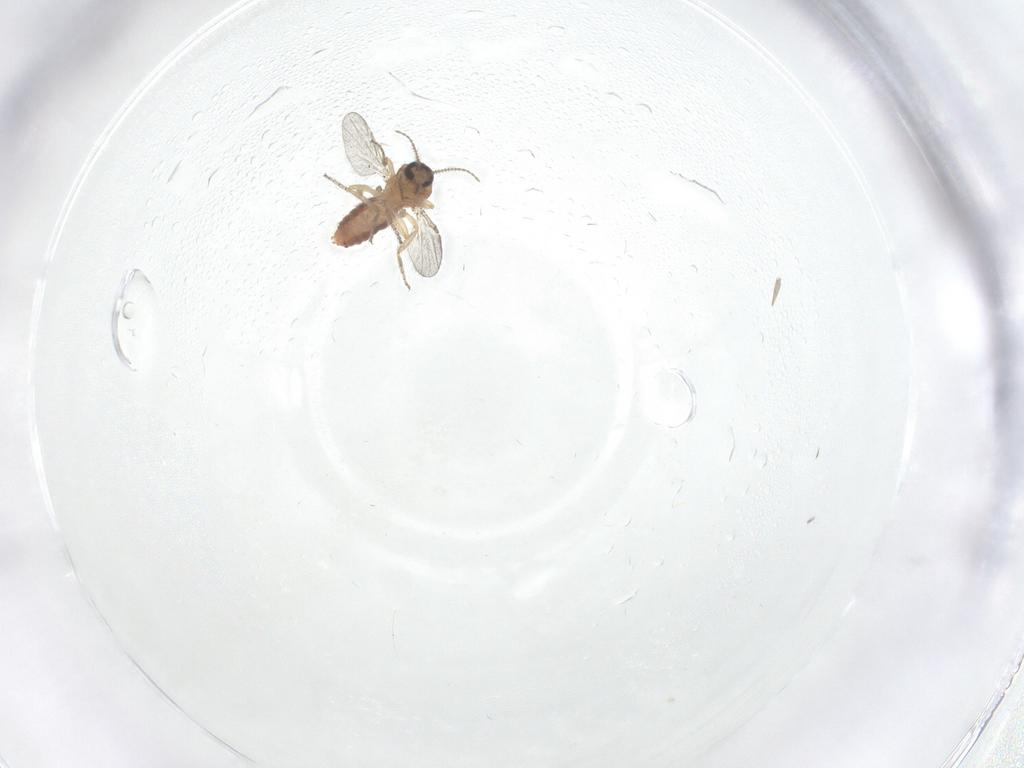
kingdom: Animalia
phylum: Arthropoda
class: Insecta
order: Diptera
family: Ceratopogonidae
